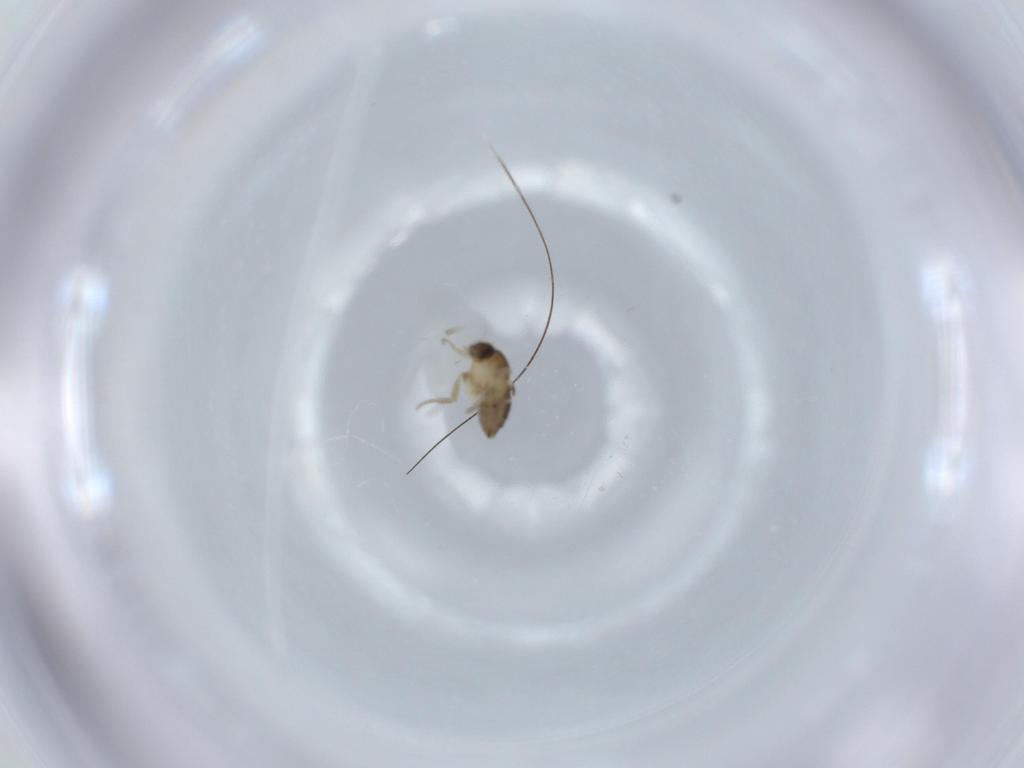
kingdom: Animalia
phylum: Arthropoda
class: Insecta
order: Diptera
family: Phoridae
